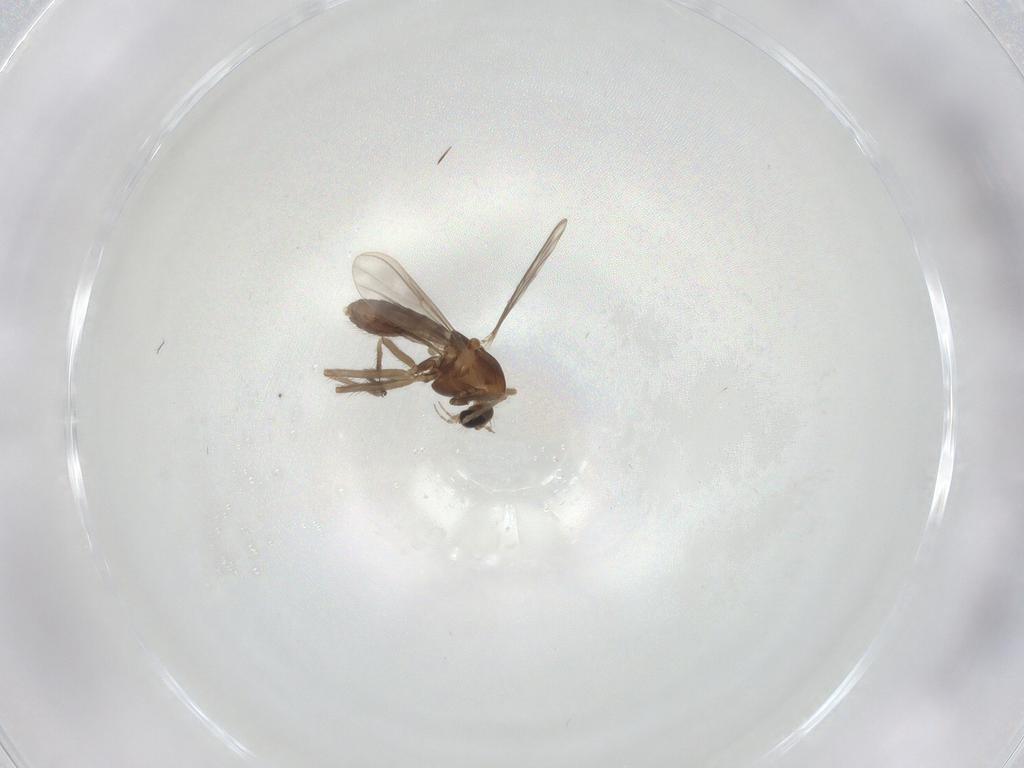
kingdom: Animalia
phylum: Arthropoda
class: Insecta
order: Diptera
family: Chironomidae
